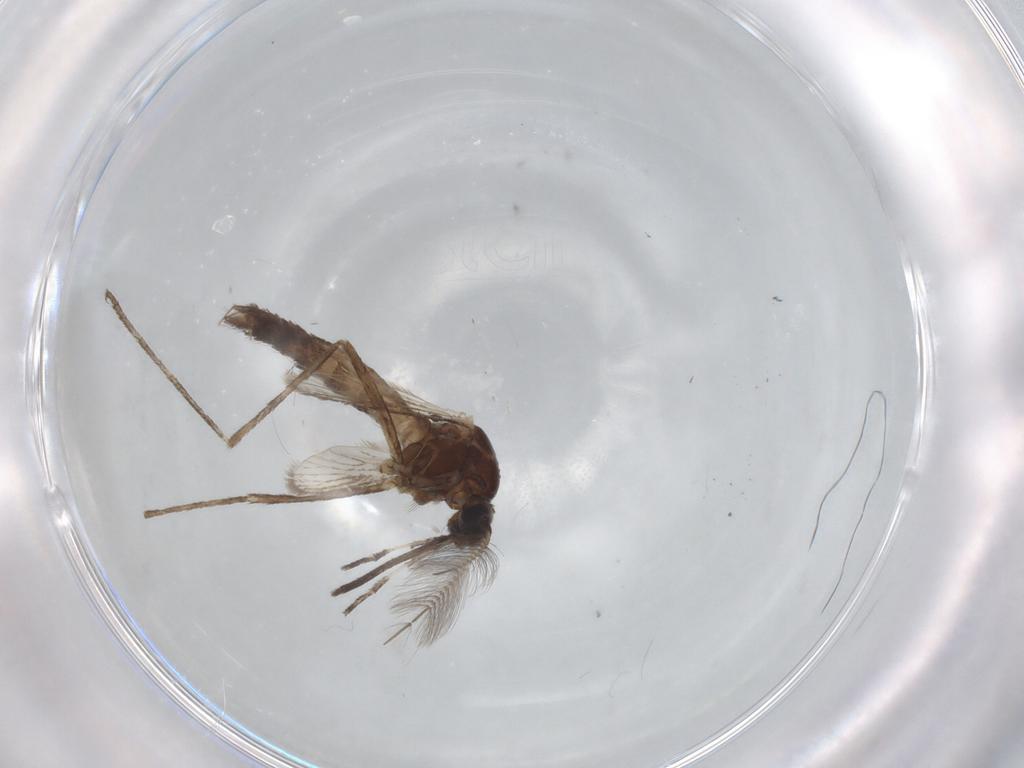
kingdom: Animalia
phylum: Arthropoda
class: Insecta
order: Diptera
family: Culicidae
